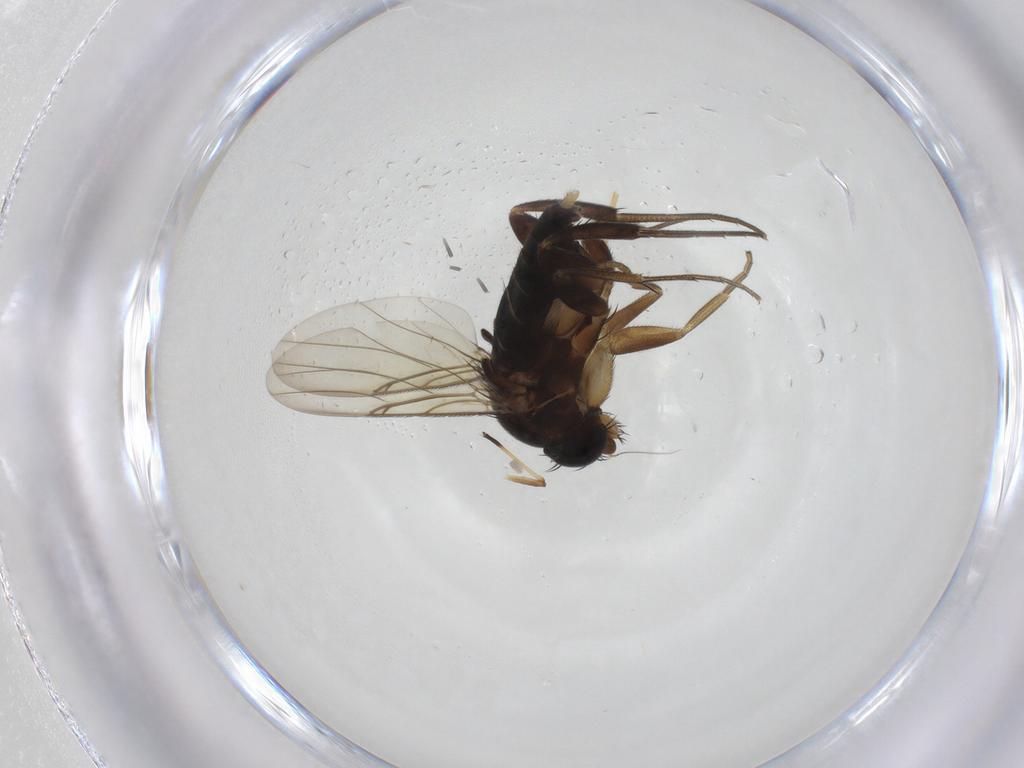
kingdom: Animalia
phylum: Arthropoda
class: Insecta
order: Diptera
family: Phoridae
